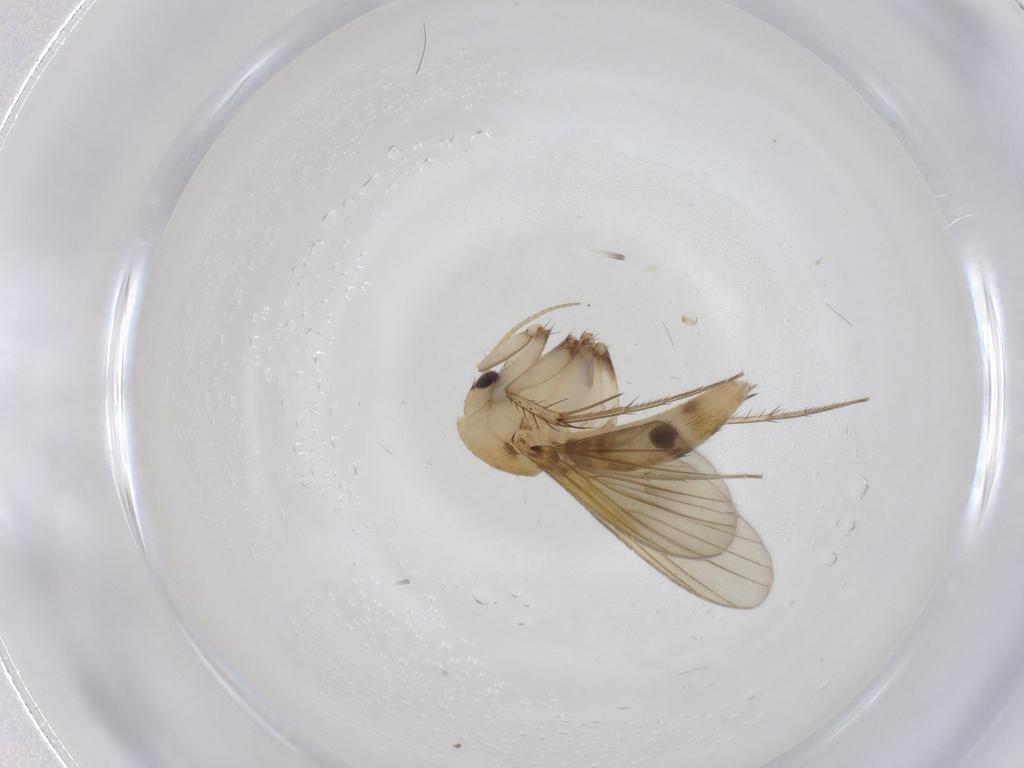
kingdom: Animalia
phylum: Arthropoda
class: Insecta
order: Diptera
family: Mycetophilidae
